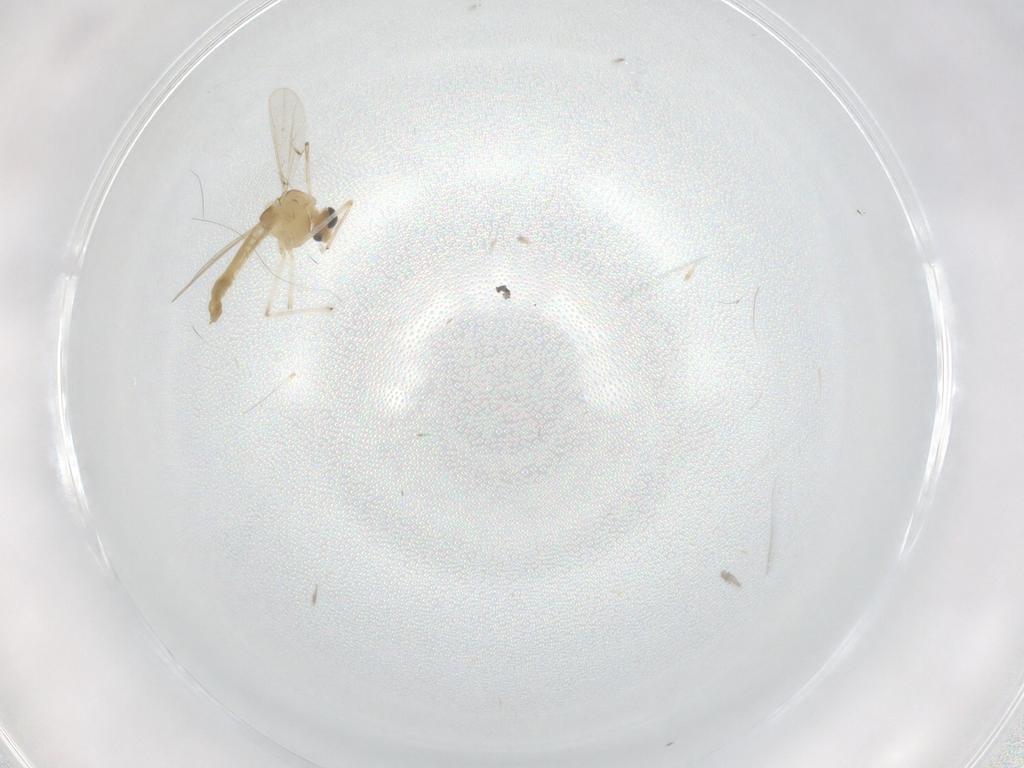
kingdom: Animalia
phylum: Arthropoda
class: Insecta
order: Diptera
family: Chironomidae
